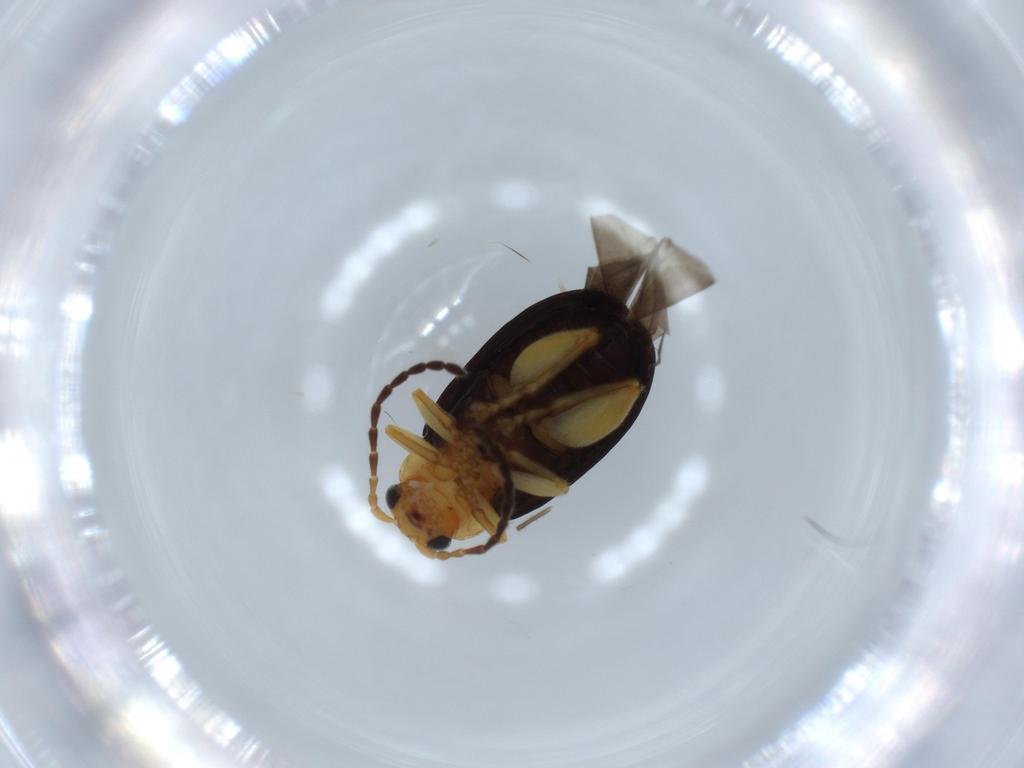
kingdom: Animalia
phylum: Arthropoda
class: Insecta
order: Coleoptera
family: Chrysomelidae
